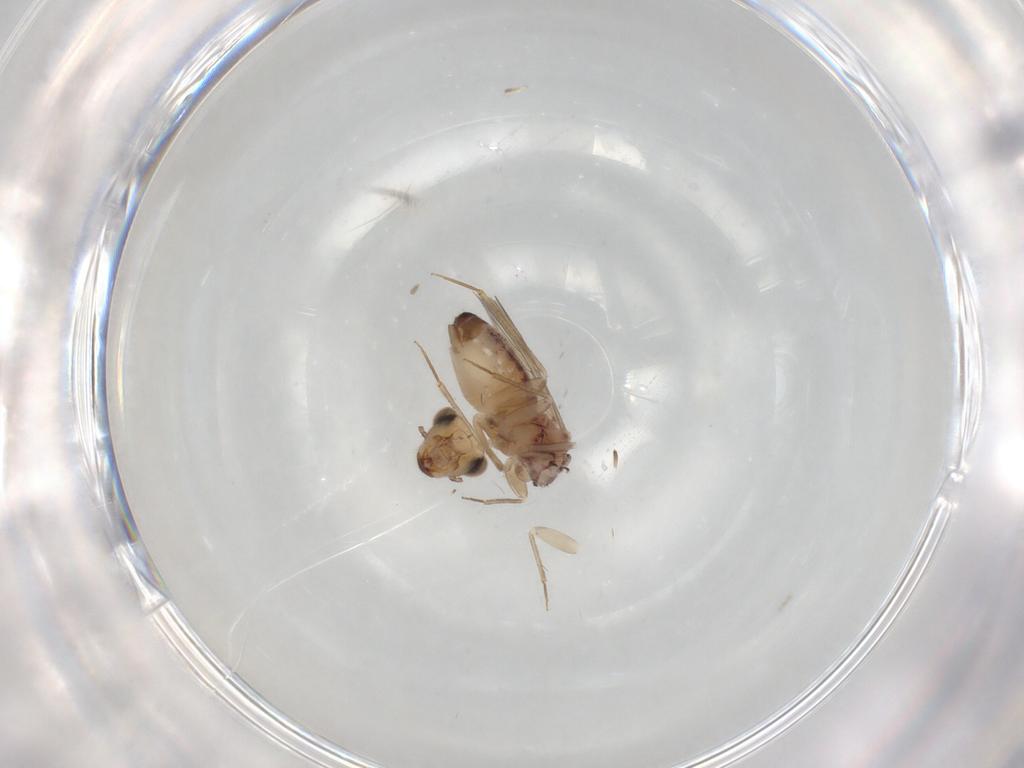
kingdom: Animalia
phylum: Arthropoda
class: Insecta
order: Psocodea
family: Lepidopsocidae
